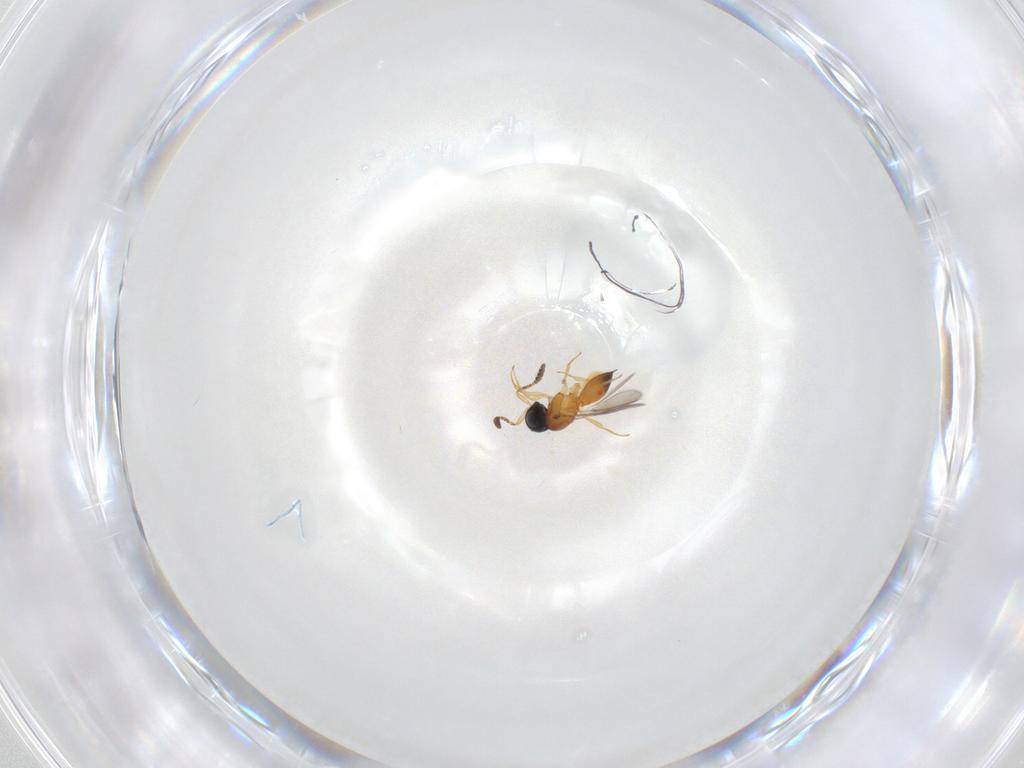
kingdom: Animalia
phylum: Arthropoda
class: Insecta
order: Hymenoptera
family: Scelionidae
